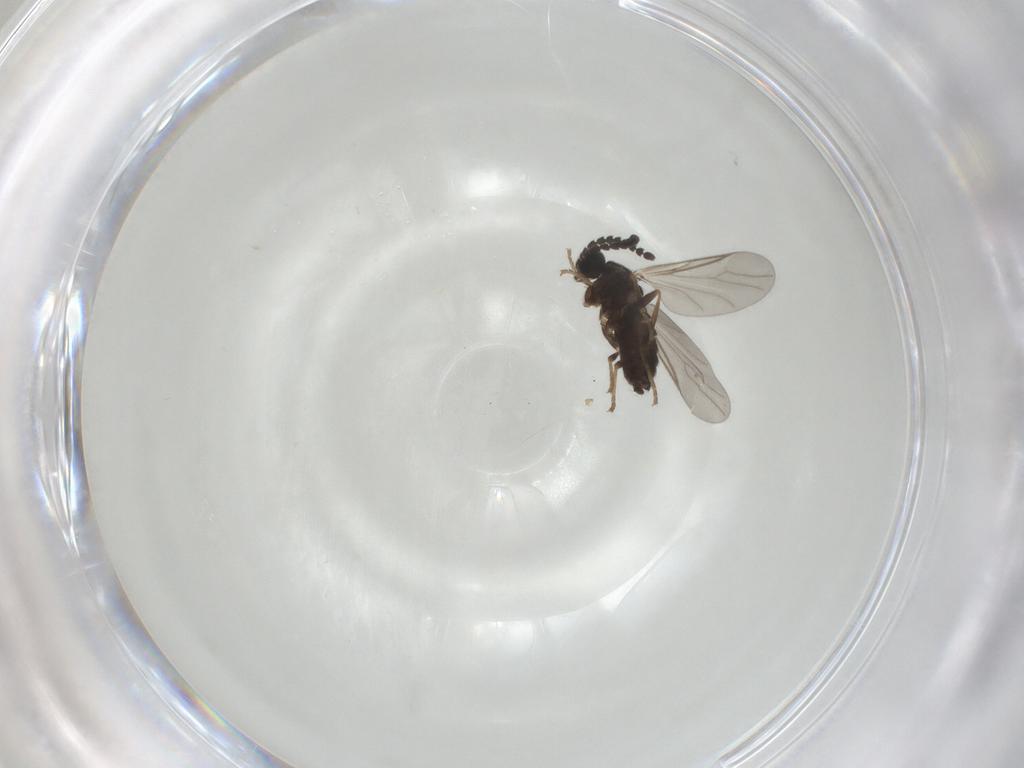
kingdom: Animalia
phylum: Arthropoda
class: Insecta
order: Diptera
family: Scatopsidae
